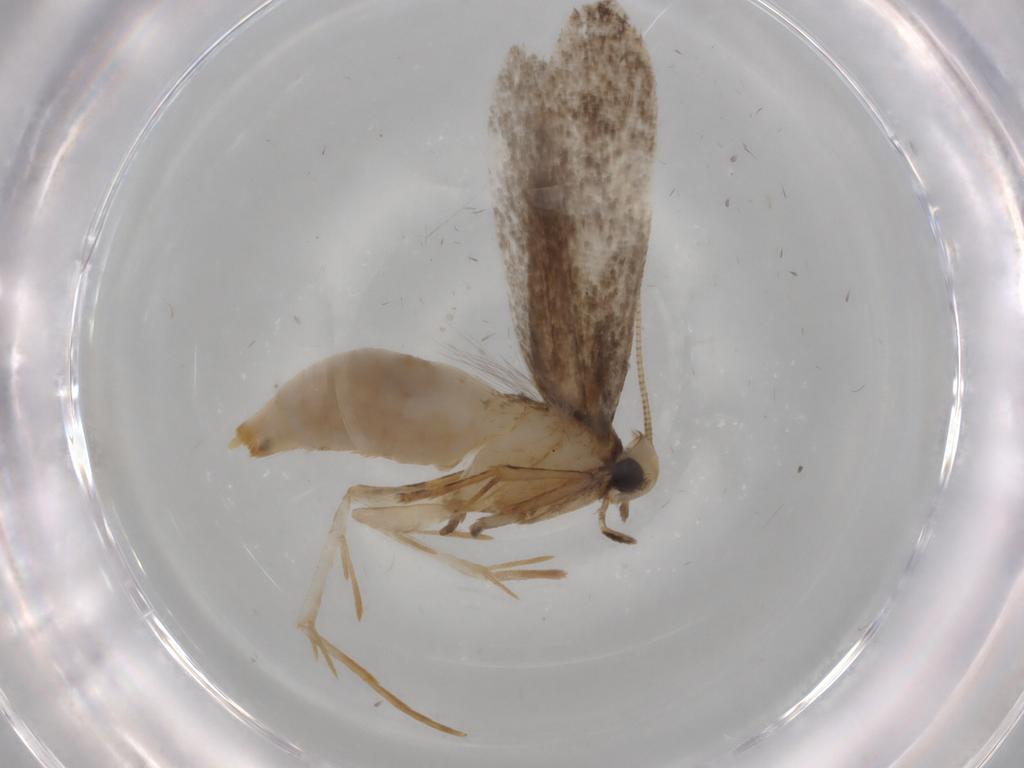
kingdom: Animalia
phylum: Arthropoda
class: Insecta
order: Lepidoptera
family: Tineidae
